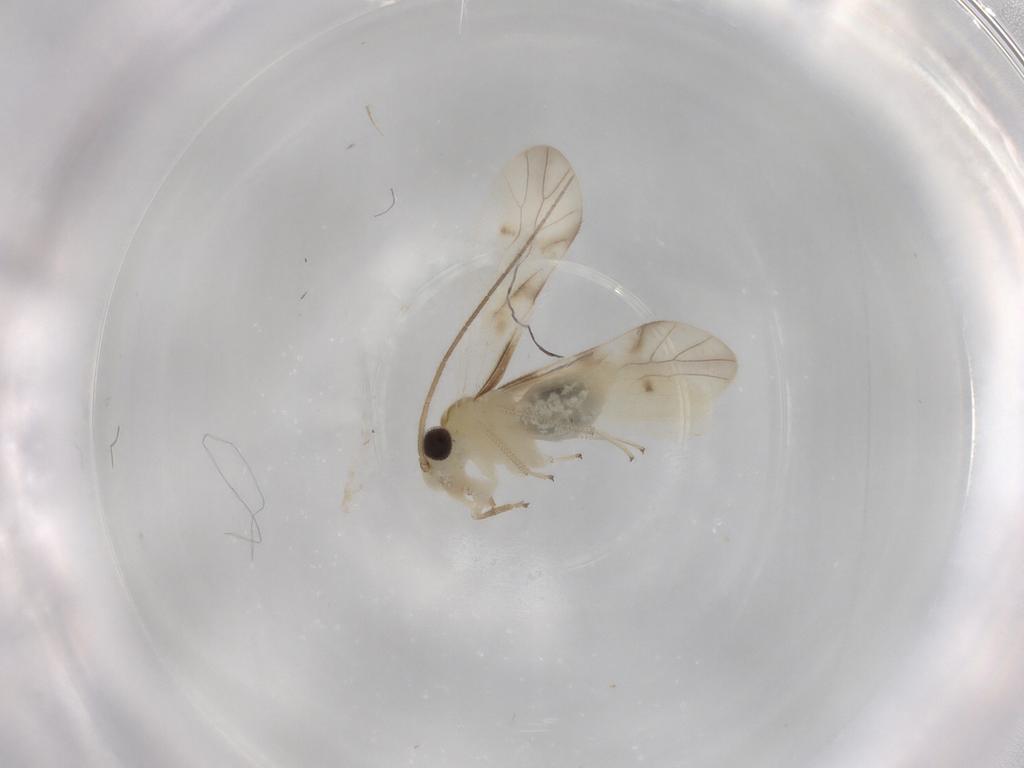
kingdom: Animalia
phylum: Arthropoda
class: Insecta
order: Psocodea
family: Caeciliusidae
